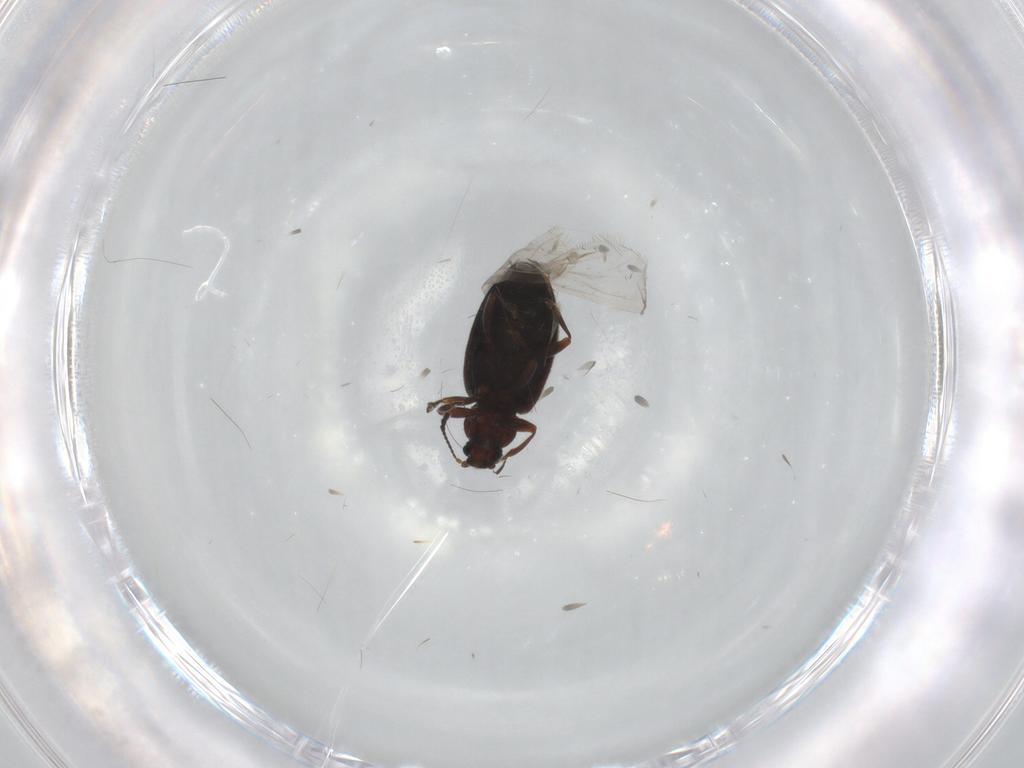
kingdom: Animalia
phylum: Arthropoda
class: Insecta
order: Coleoptera
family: Latridiidae
